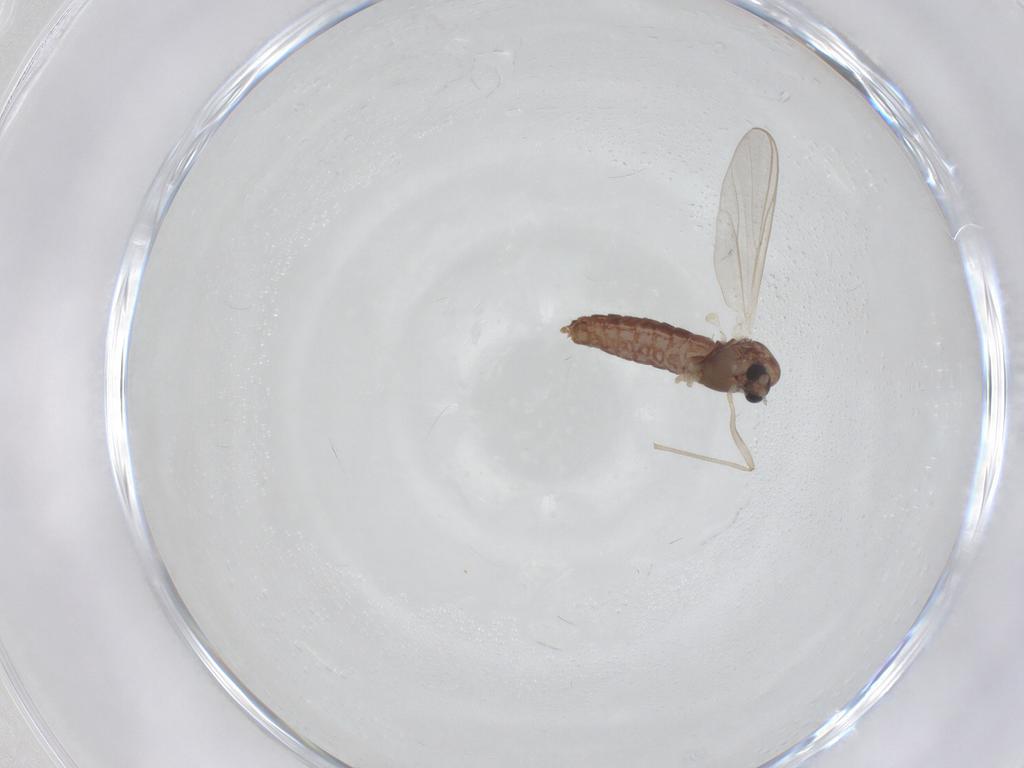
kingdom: Animalia
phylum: Arthropoda
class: Insecta
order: Diptera
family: Chironomidae
